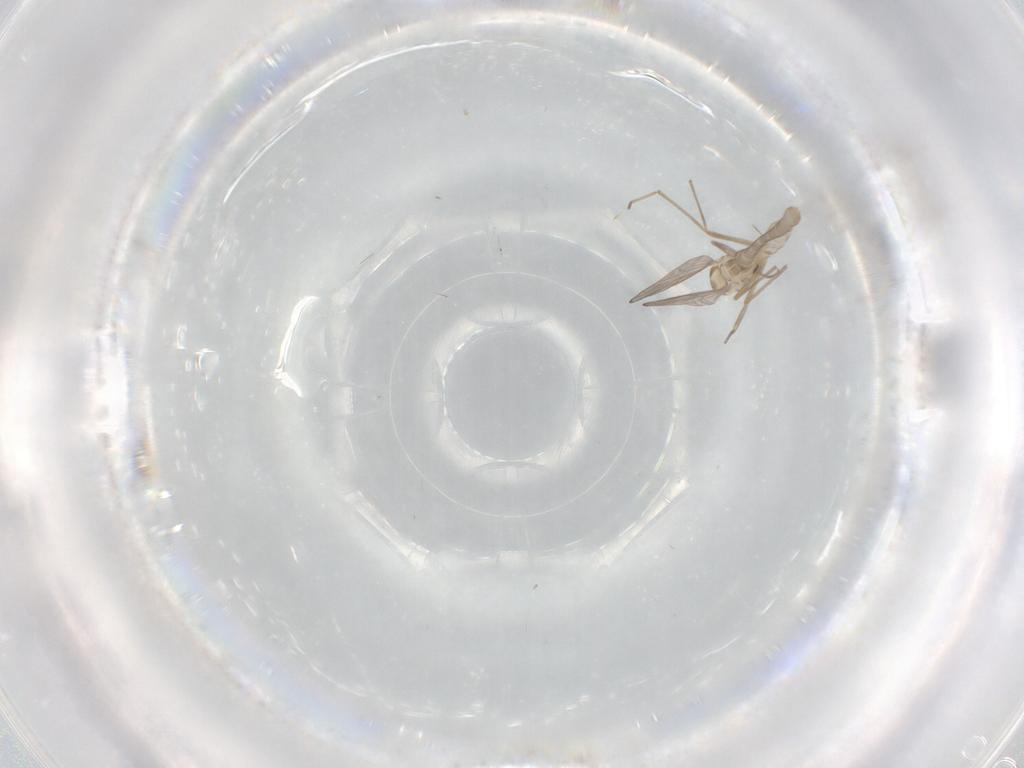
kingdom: Animalia
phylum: Arthropoda
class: Insecta
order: Diptera
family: Chironomidae
